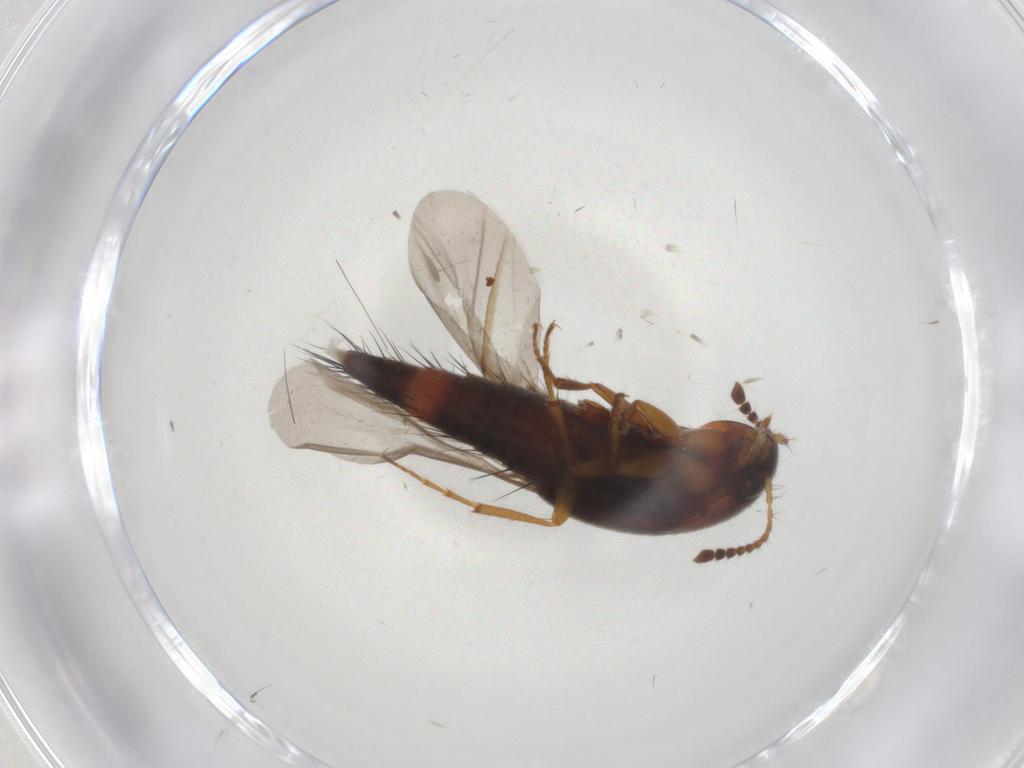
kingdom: Animalia
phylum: Arthropoda
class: Insecta
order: Coleoptera
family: Staphylinidae
